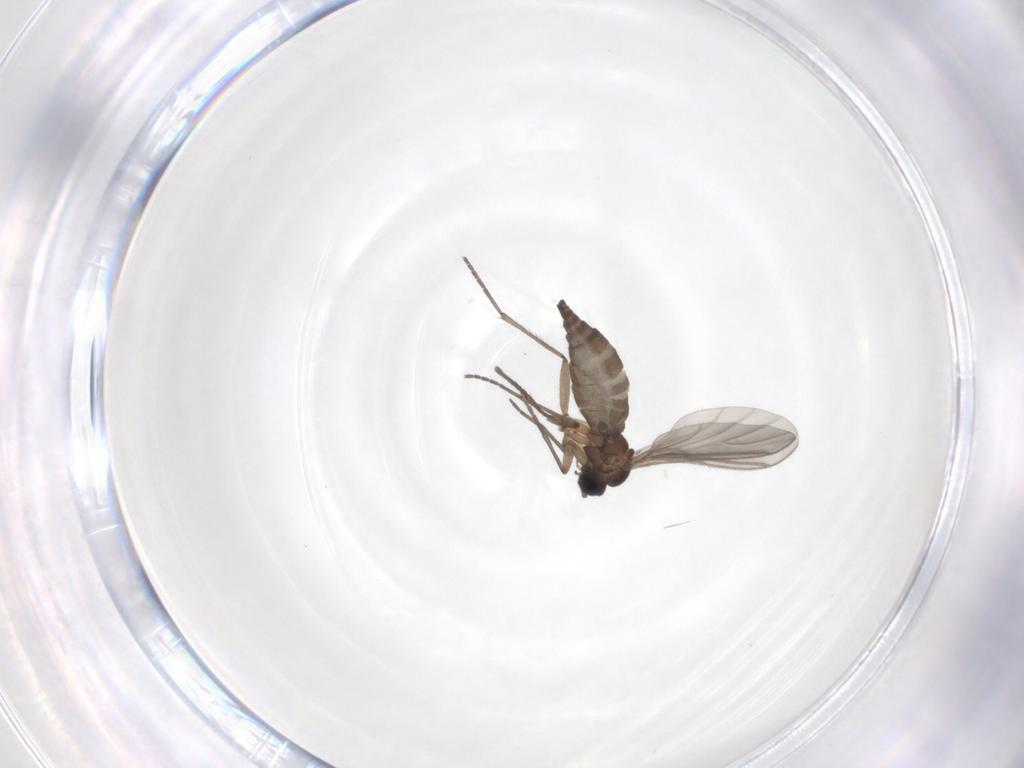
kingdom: Animalia
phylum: Arthropoda
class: Insecta
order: Diptera
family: Sciaridae
